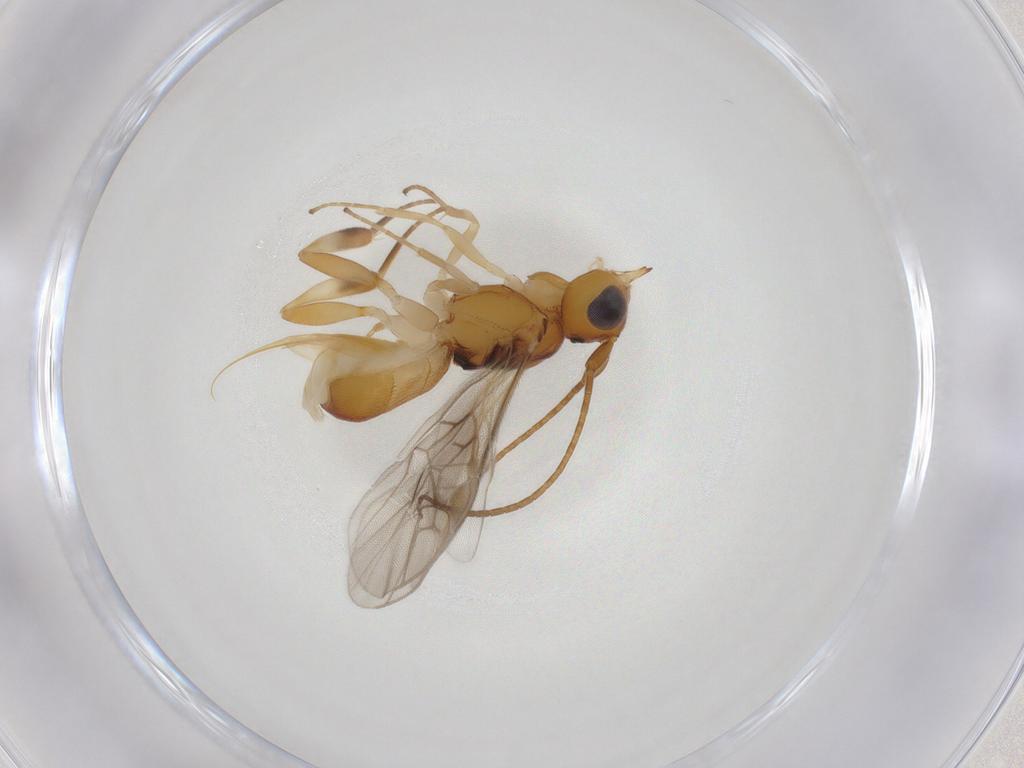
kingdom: Animalia
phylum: Arthropoda
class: Insecta
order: Hymenoptera
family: Braconidae
